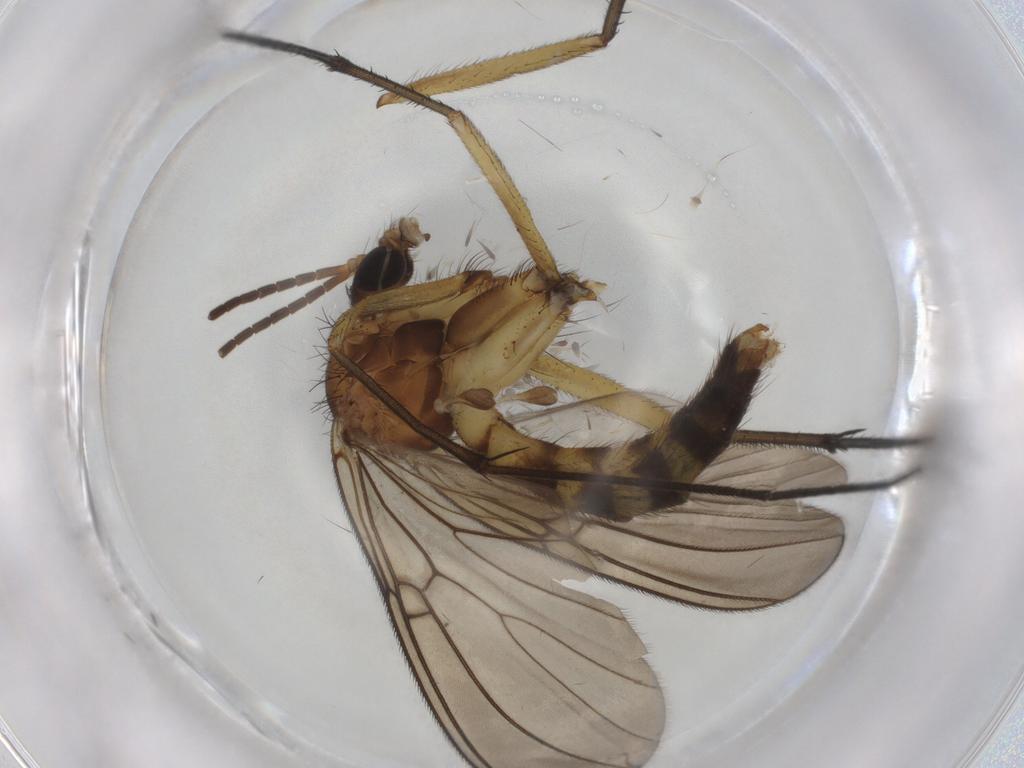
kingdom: Animalia
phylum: Arthropoda
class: Insecta
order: Diptera
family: Mycetophilidae
